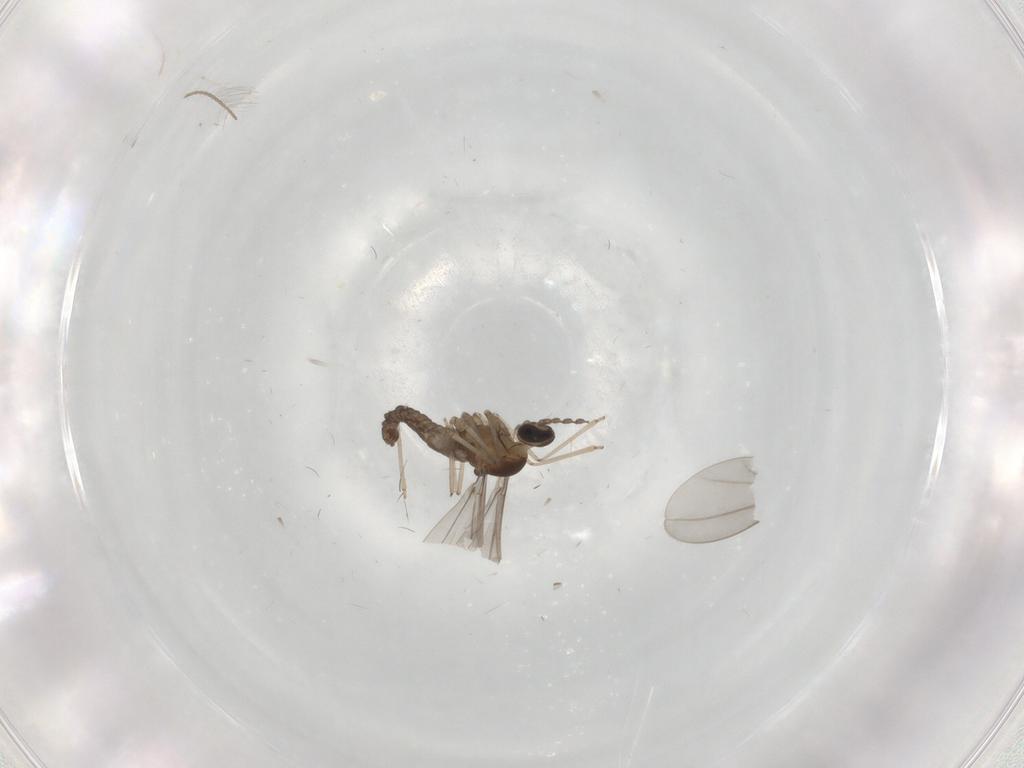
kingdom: Animalia
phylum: Arthropoda
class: Insecta
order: Diptera
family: Chironomidae
